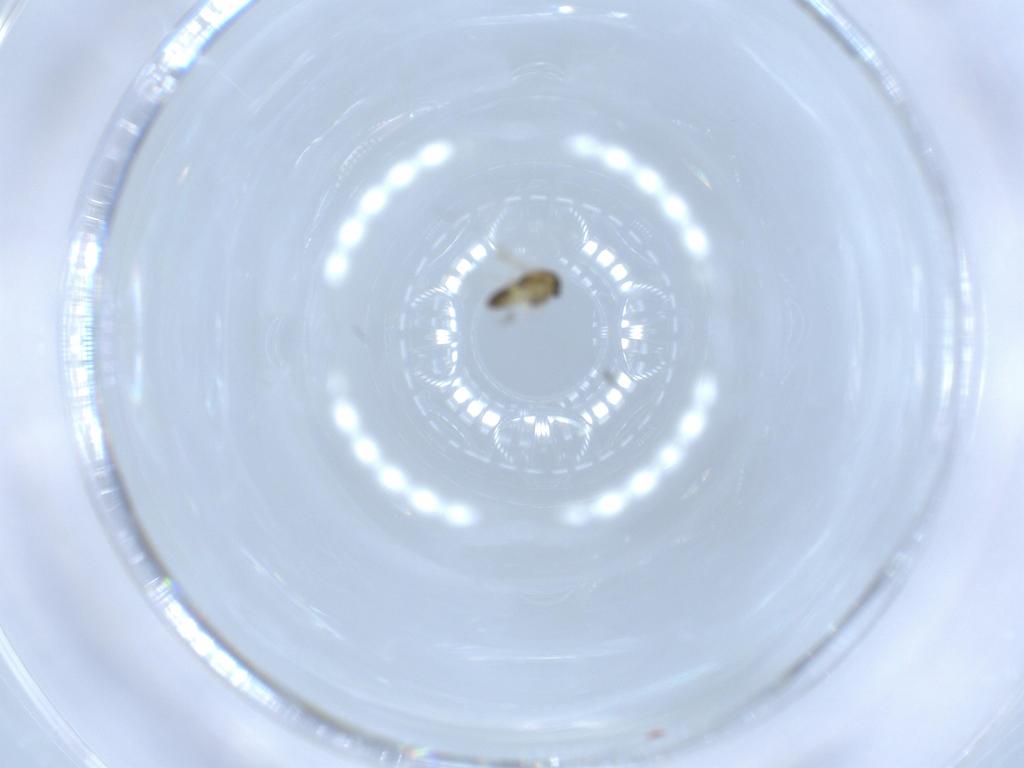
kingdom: Animalia
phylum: Arthropoda
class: Insecta
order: Diptera
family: Chironomidae
